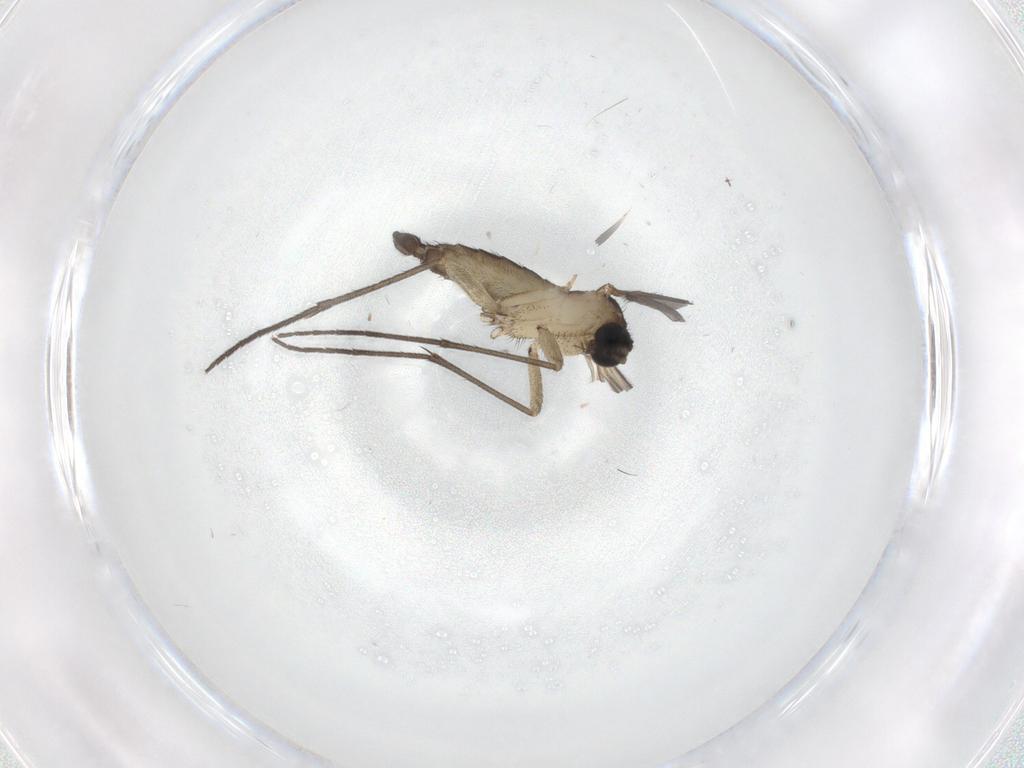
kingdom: Animalia
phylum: Arthropoda
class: Insecta
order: Diptera
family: Sciaridae
